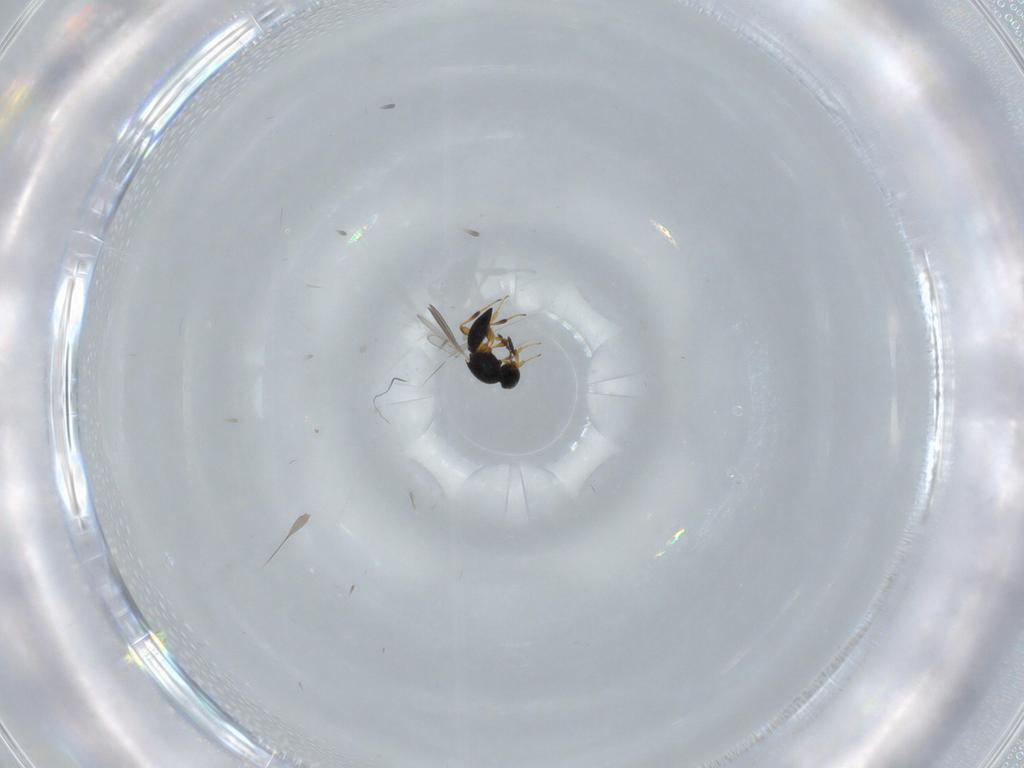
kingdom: Animalia
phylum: Arthropoda
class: Insecta
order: Hymenoptera
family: Platygastridae
